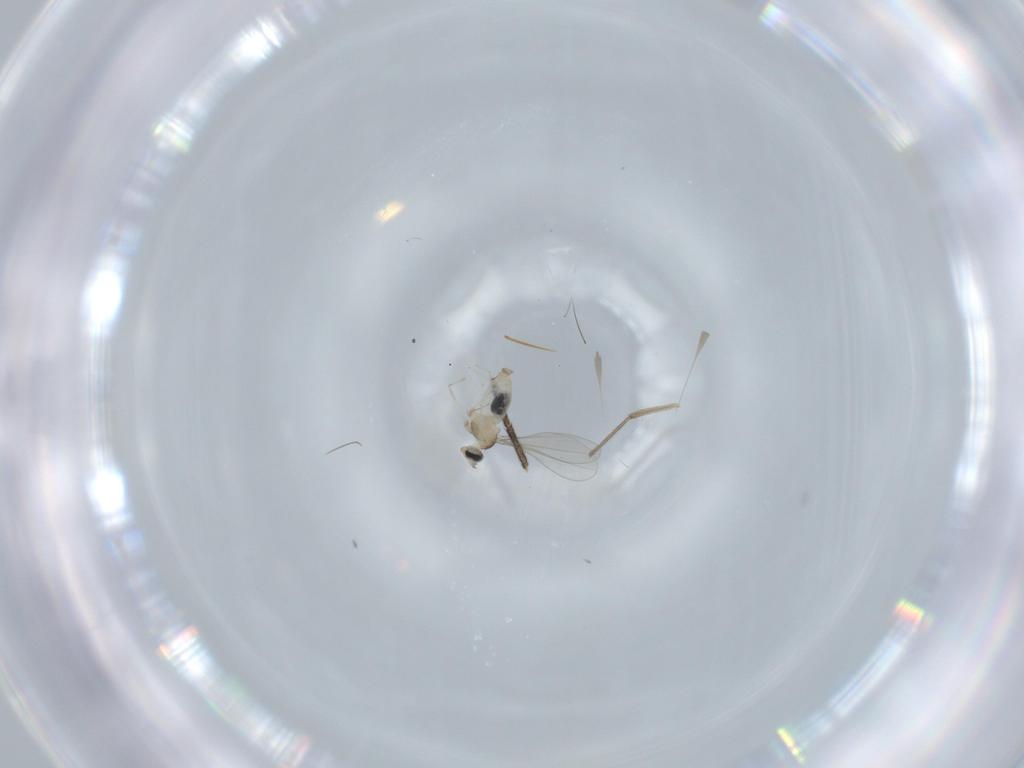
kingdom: Animalia
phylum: Arthropoda
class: Insecta
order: Diptera
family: Cecidomyiidae
